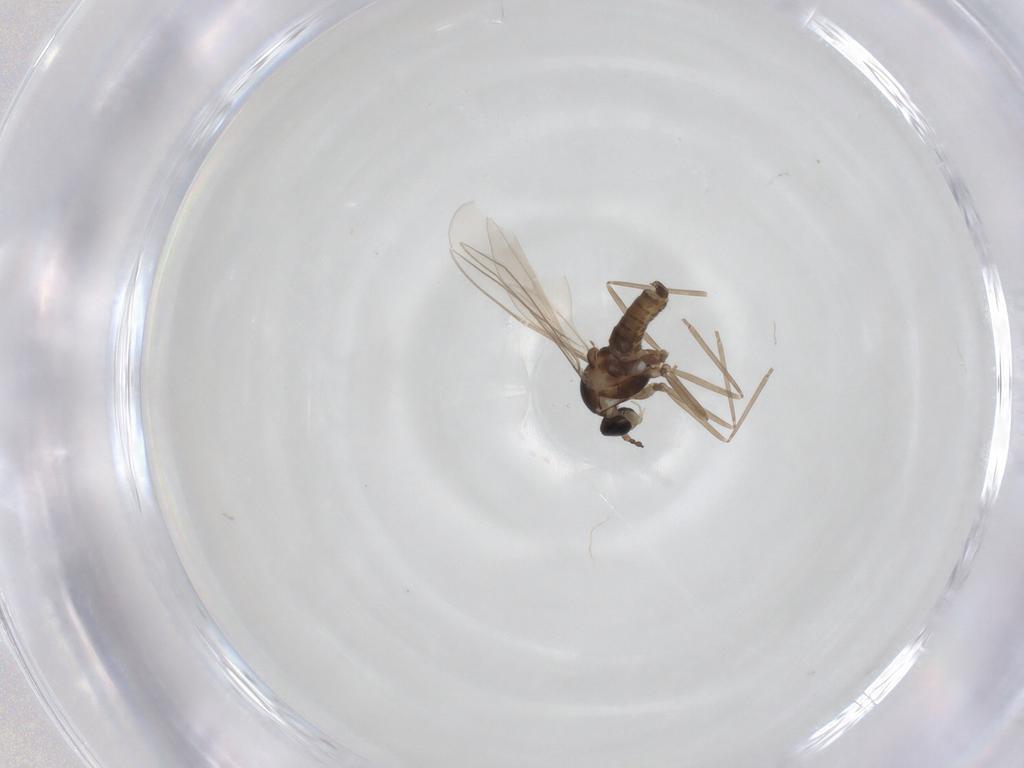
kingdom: Animalia
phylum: Arthropoda
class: Insecta
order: Diptera
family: Cecidomyiidae
